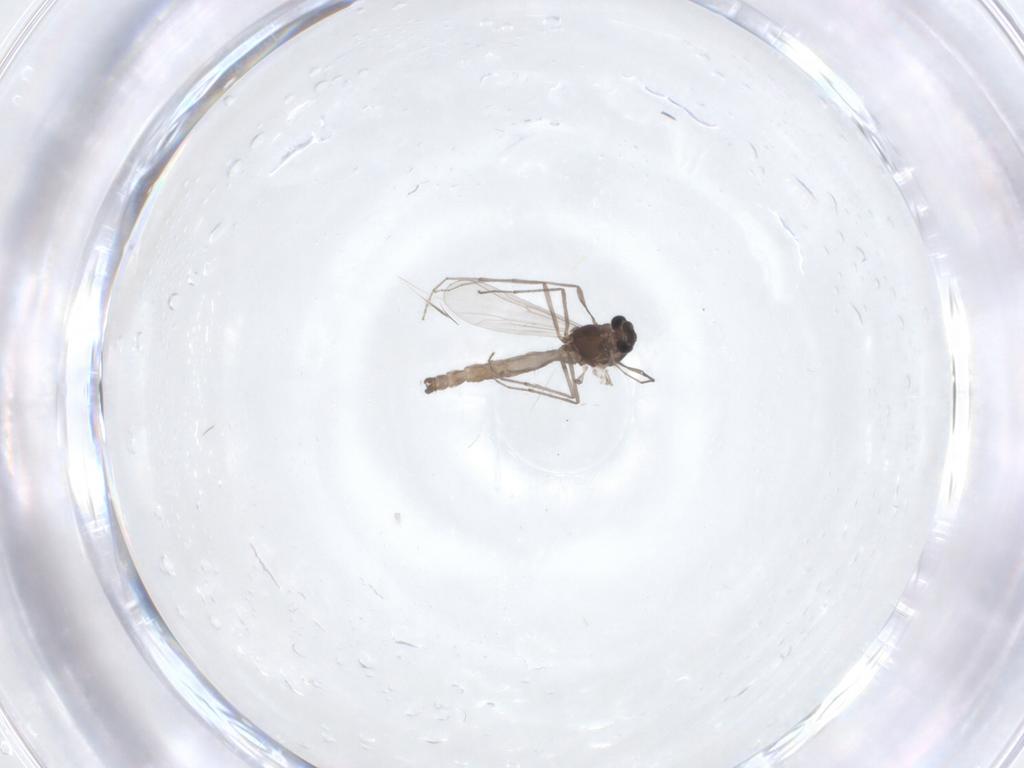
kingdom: Animalia
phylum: Arthropoda
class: Insecta
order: Diptera
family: Chironomidae
